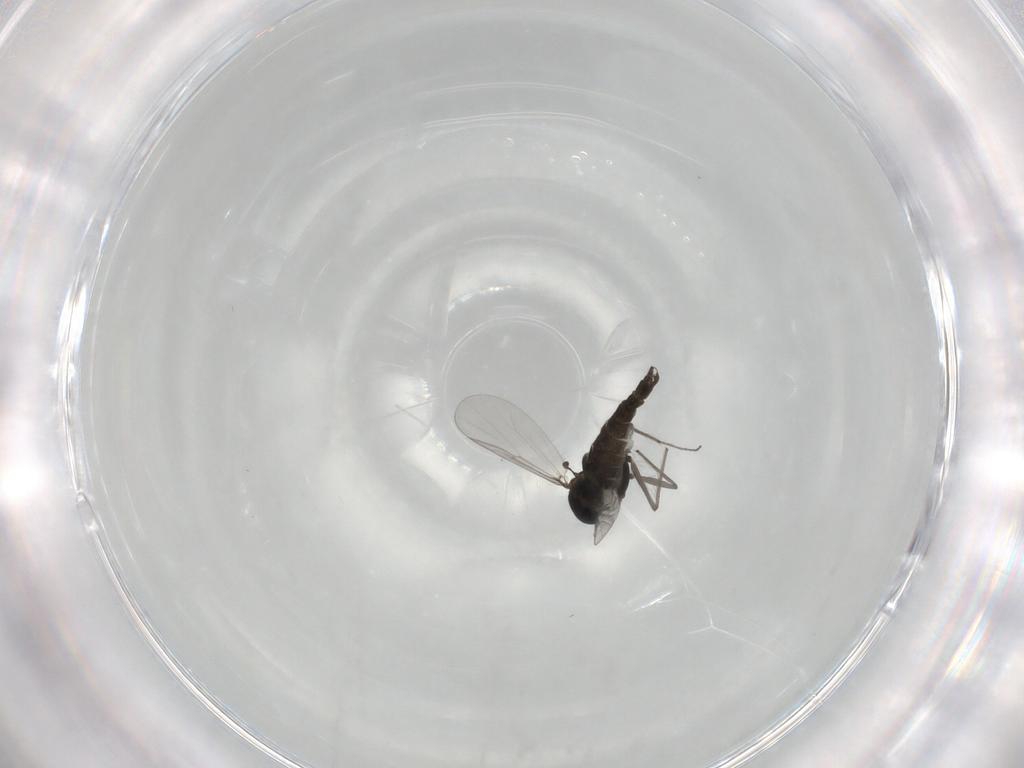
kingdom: Animalia
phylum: Arthropoda
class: Insecta
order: Diptera
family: Chironomidae
